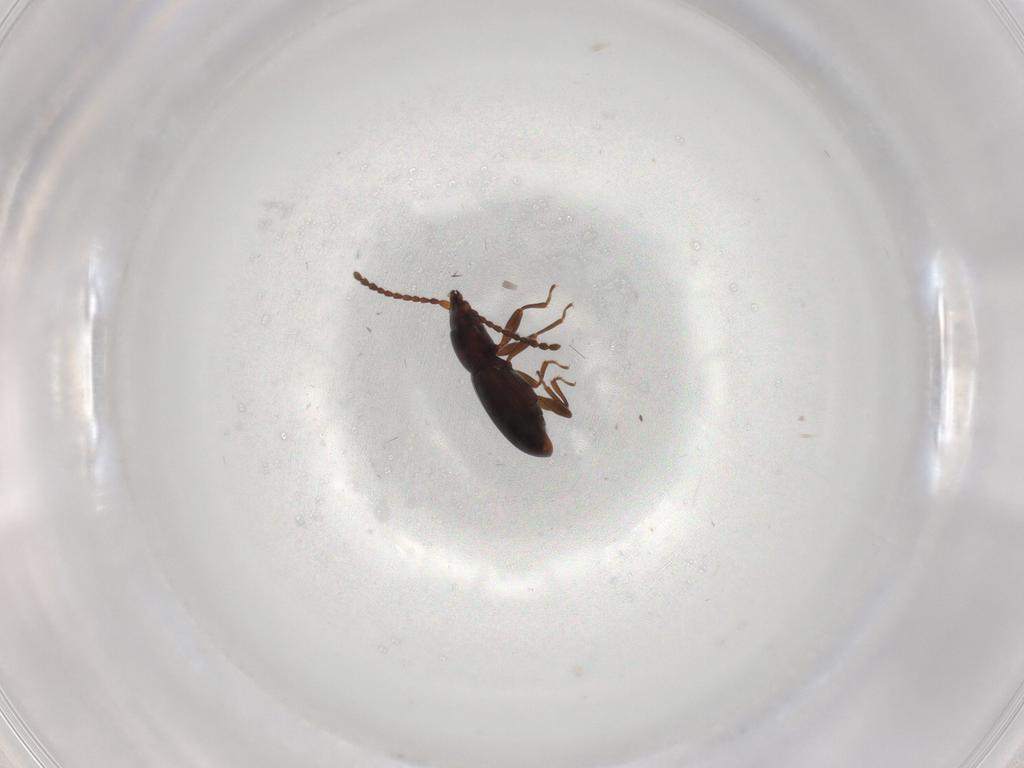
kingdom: Animalia
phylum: Arthropoda
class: Insecta
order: Coleoptera
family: Laemophloeidae
